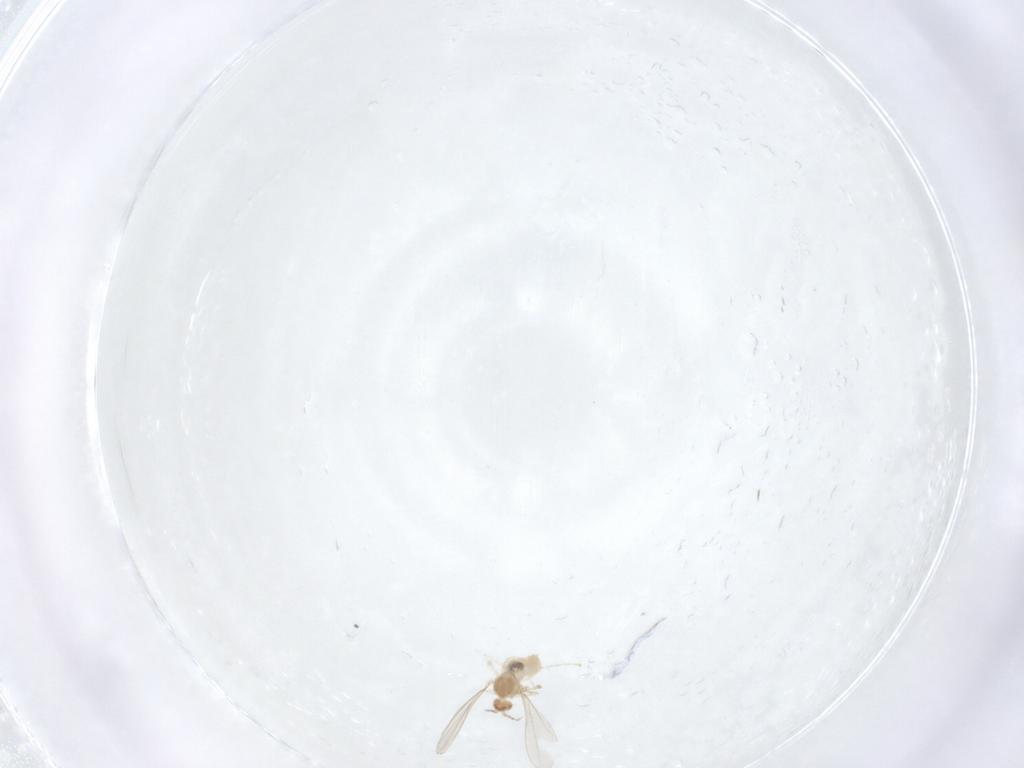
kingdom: Animalia
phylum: Arthropoda
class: Insecta
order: Diptera
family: Cecidomyiidae
